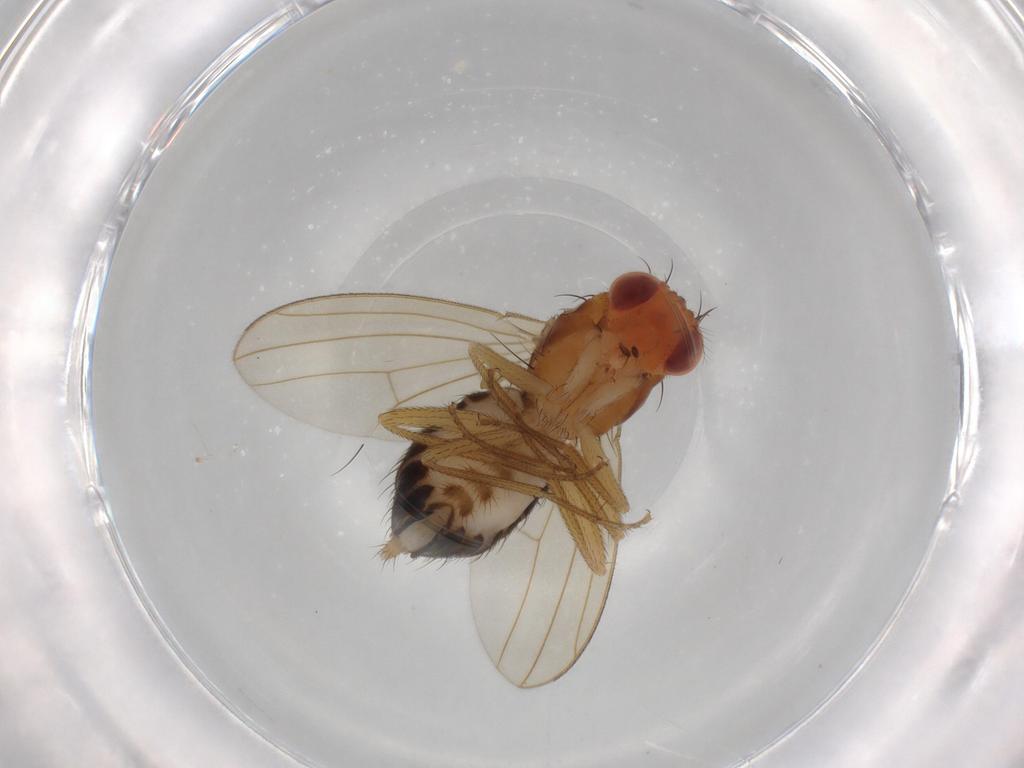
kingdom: Animalia
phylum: Arthropoda
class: Insecta
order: Diptera
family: Drosophilidae
